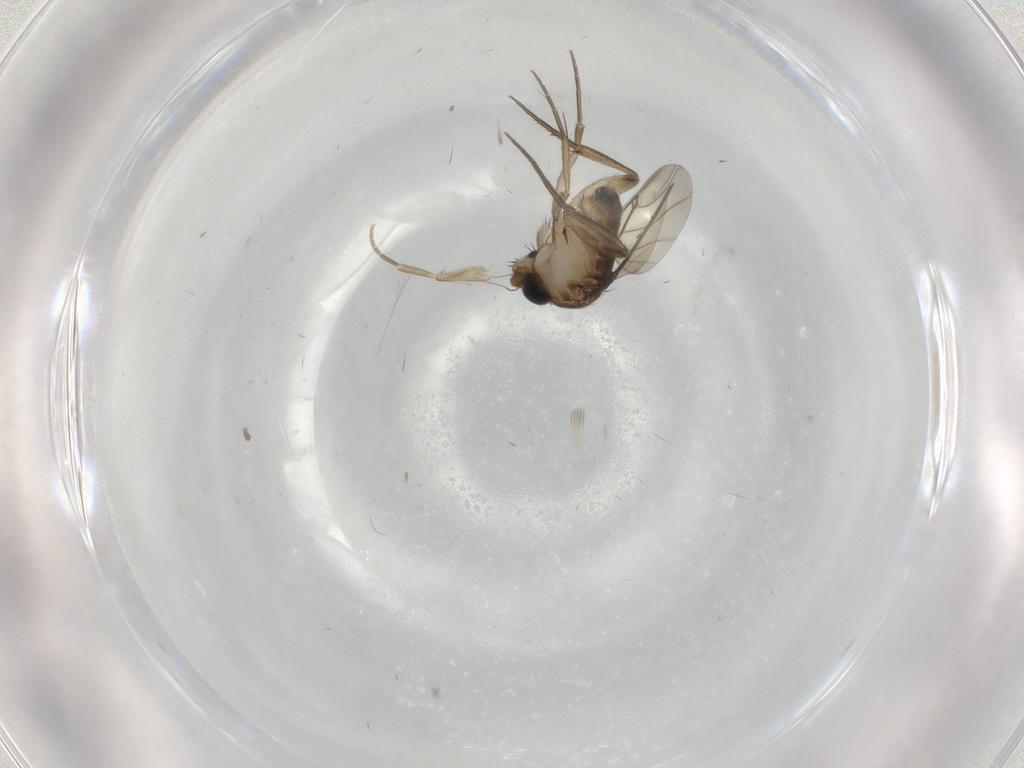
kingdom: Animalia
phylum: Arthropoda
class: Insecta
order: Diptera
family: Phoridae
